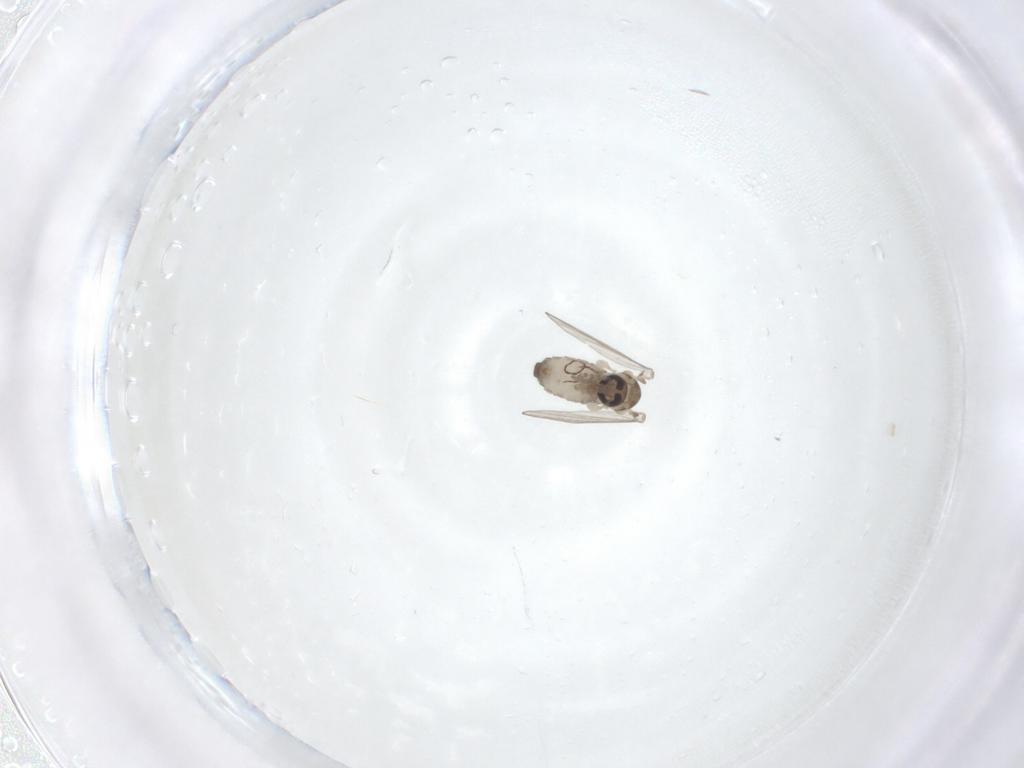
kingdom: Animalia
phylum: Arthropoda
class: Insecta
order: Diptera
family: Psychodidae
